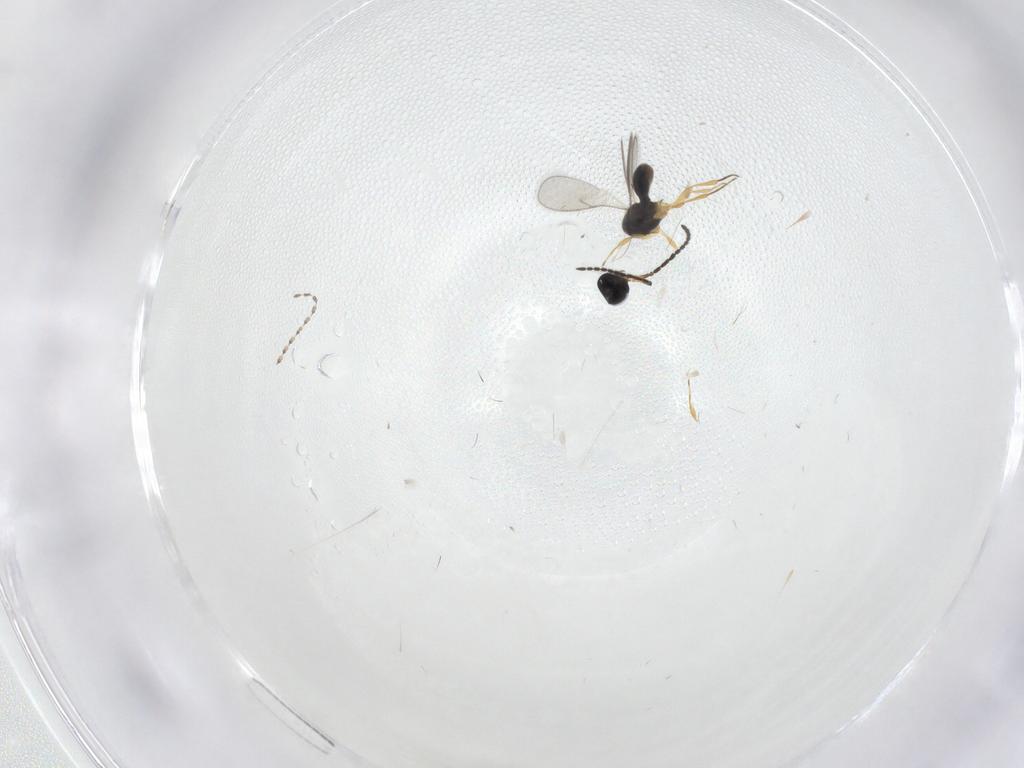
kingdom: Animalia
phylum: Arthropoda
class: Insecta
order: Hymenoptera
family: Scelionidae
